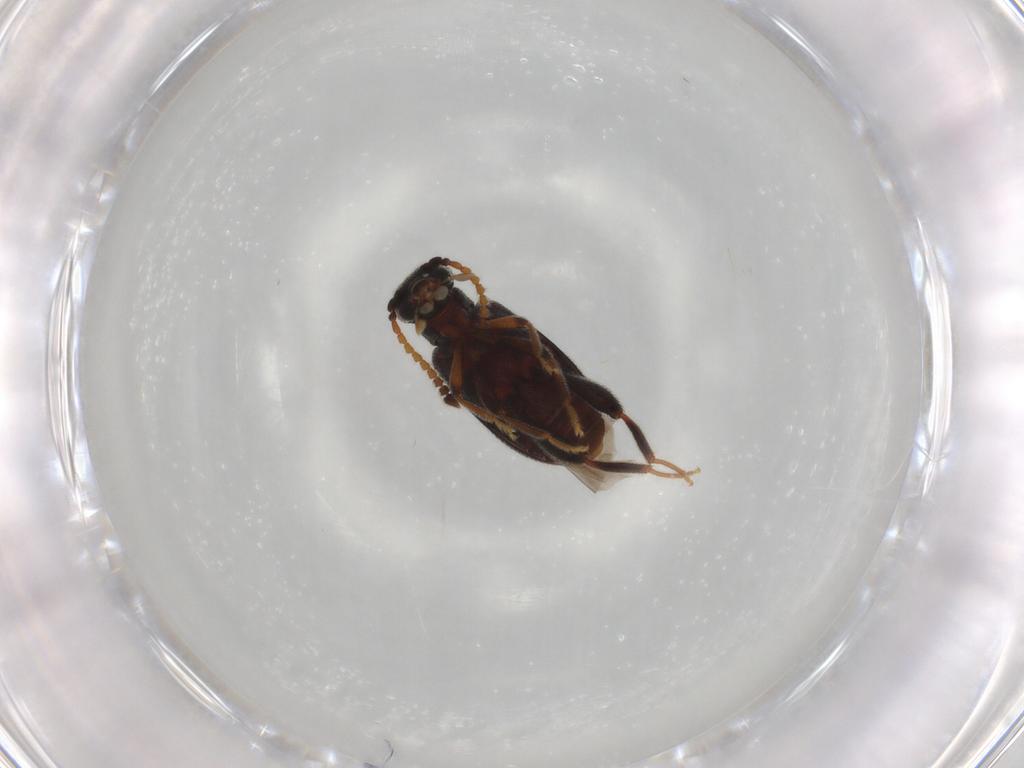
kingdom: Animalia
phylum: Arthropoda
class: Insecta
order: Coleoptera
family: Aderidae
